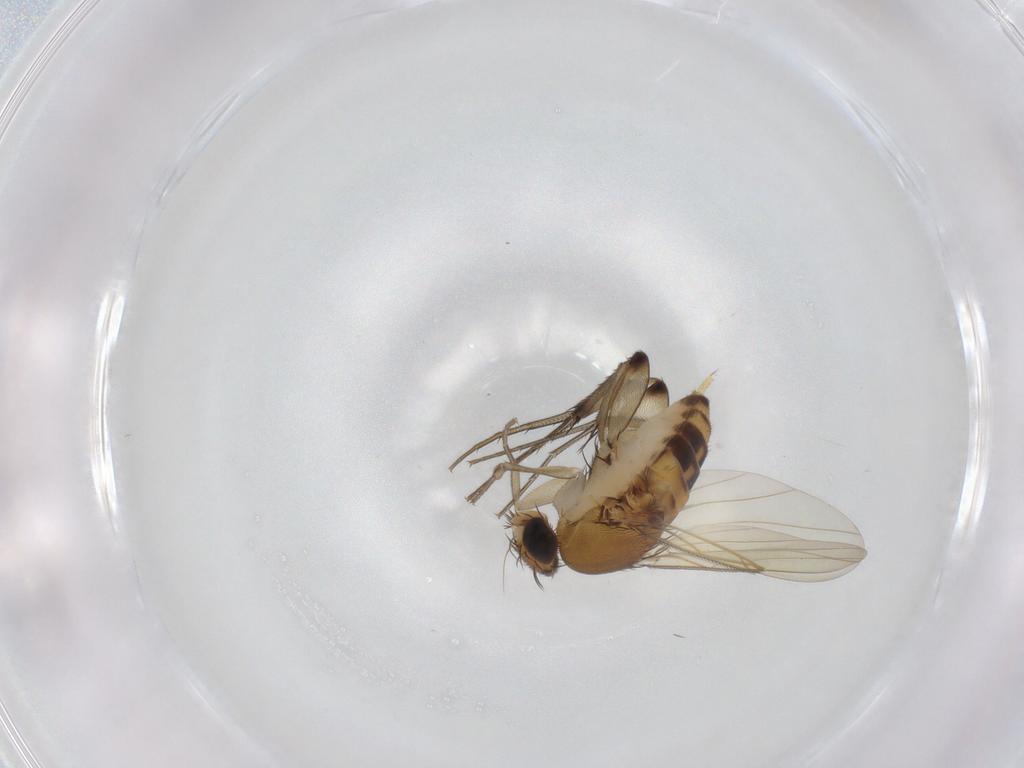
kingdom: Animalia
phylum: Arthropoda
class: Insecta
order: Diptera
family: Phoridae
